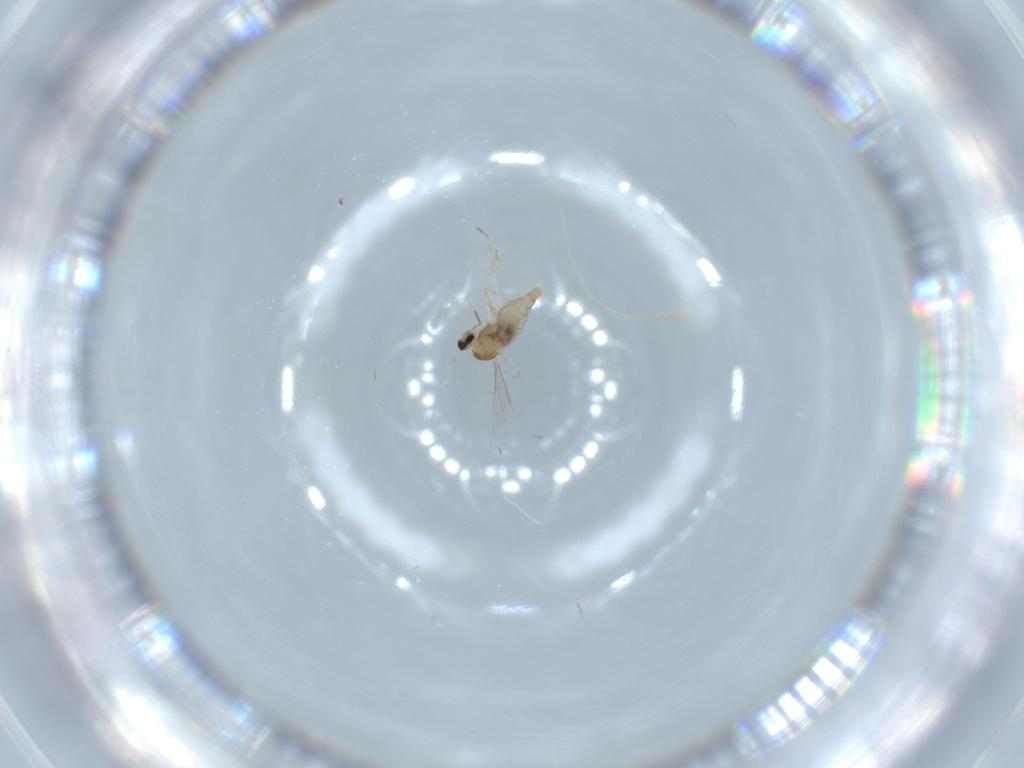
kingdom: Animalia
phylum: Arthropoda
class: Insecta
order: Diptera
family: Cecidomyiidae
